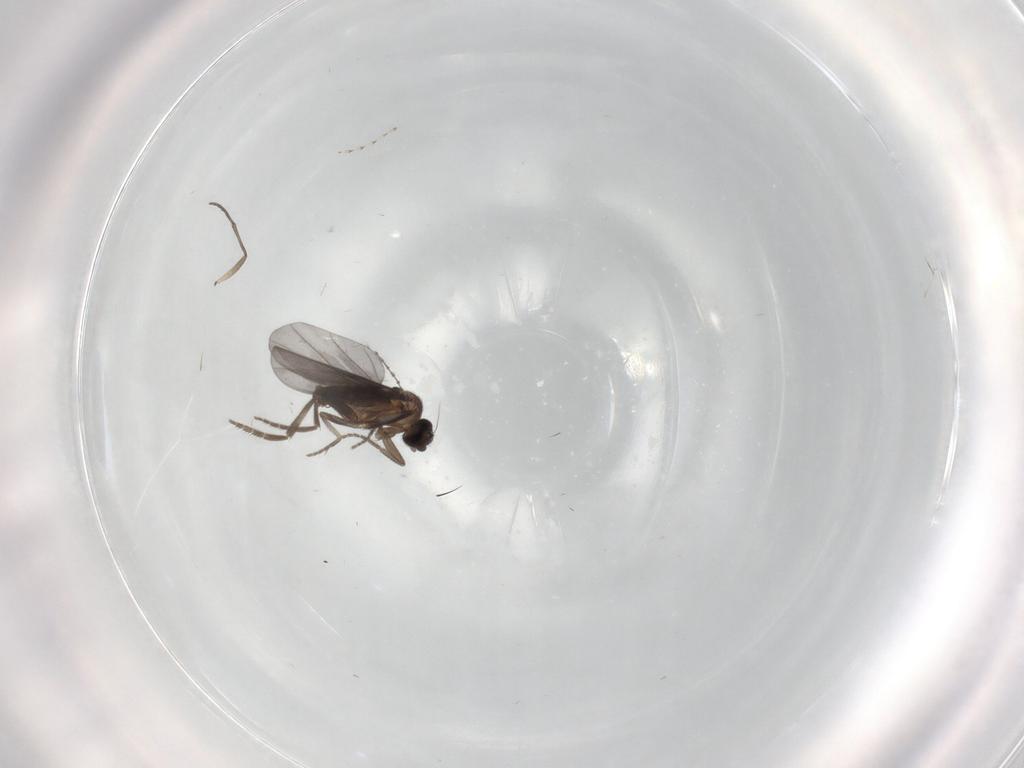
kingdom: Animalia
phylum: Arthropoda
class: Insecta
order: Diptera
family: Phoridae
